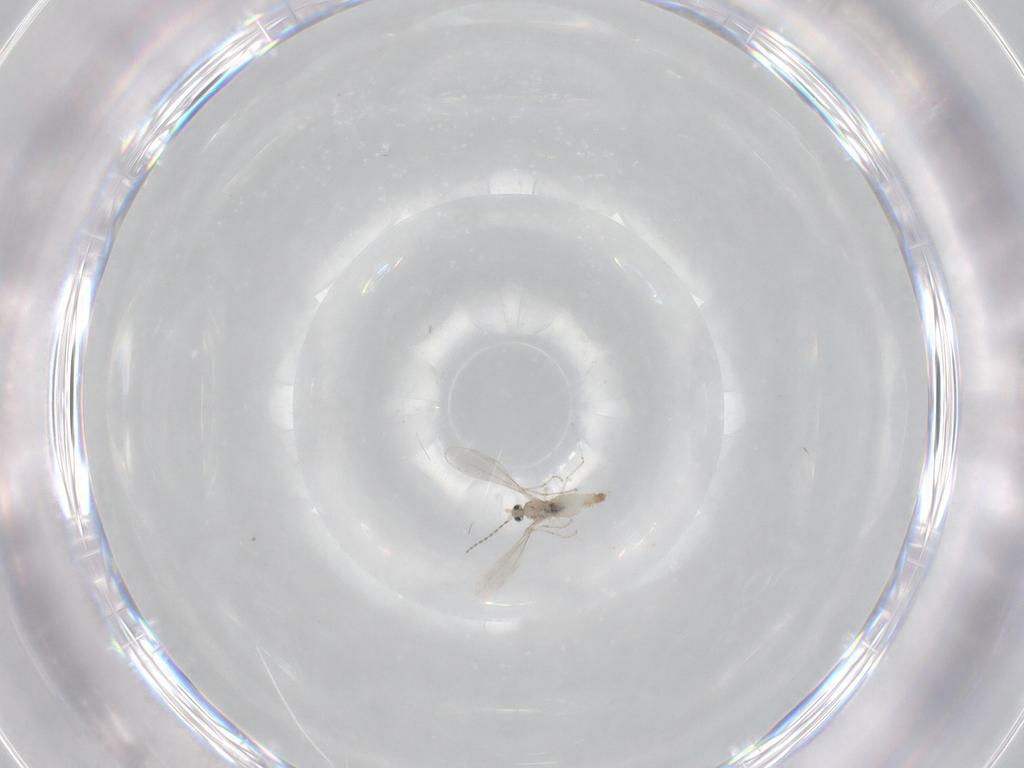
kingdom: Animalia
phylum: Arthropoda
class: Insecta
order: Diptera
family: Cecidomyiidae
